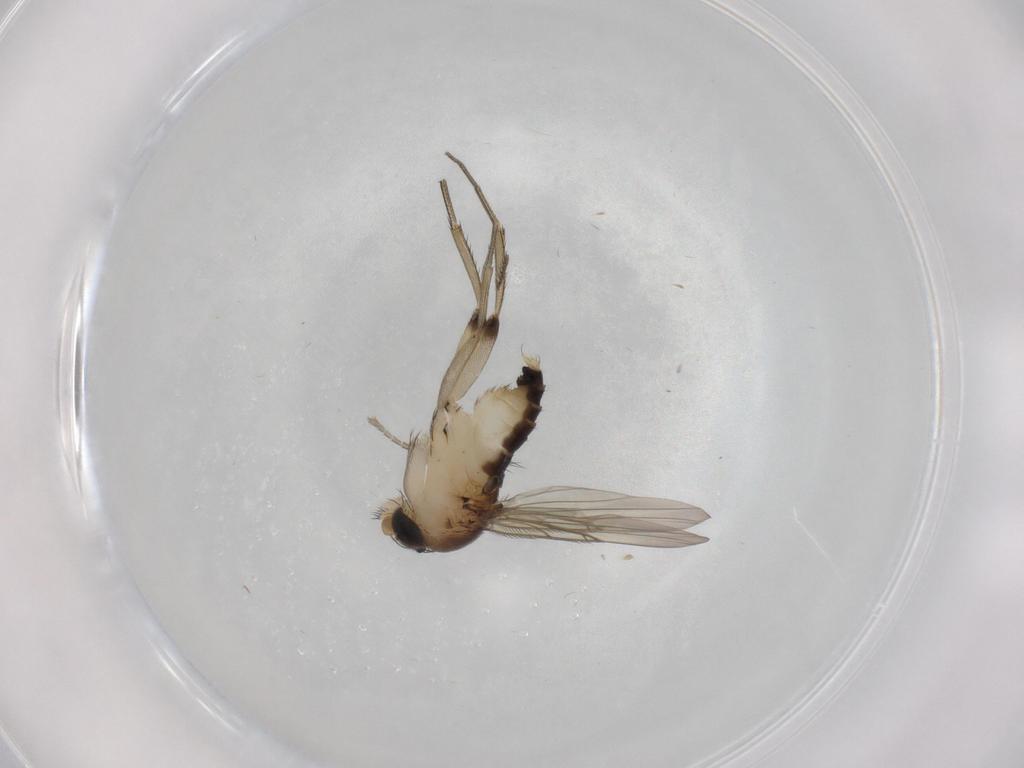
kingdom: Animalia
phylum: Arthropoda
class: Insecta
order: Diptera
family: Phoridae
